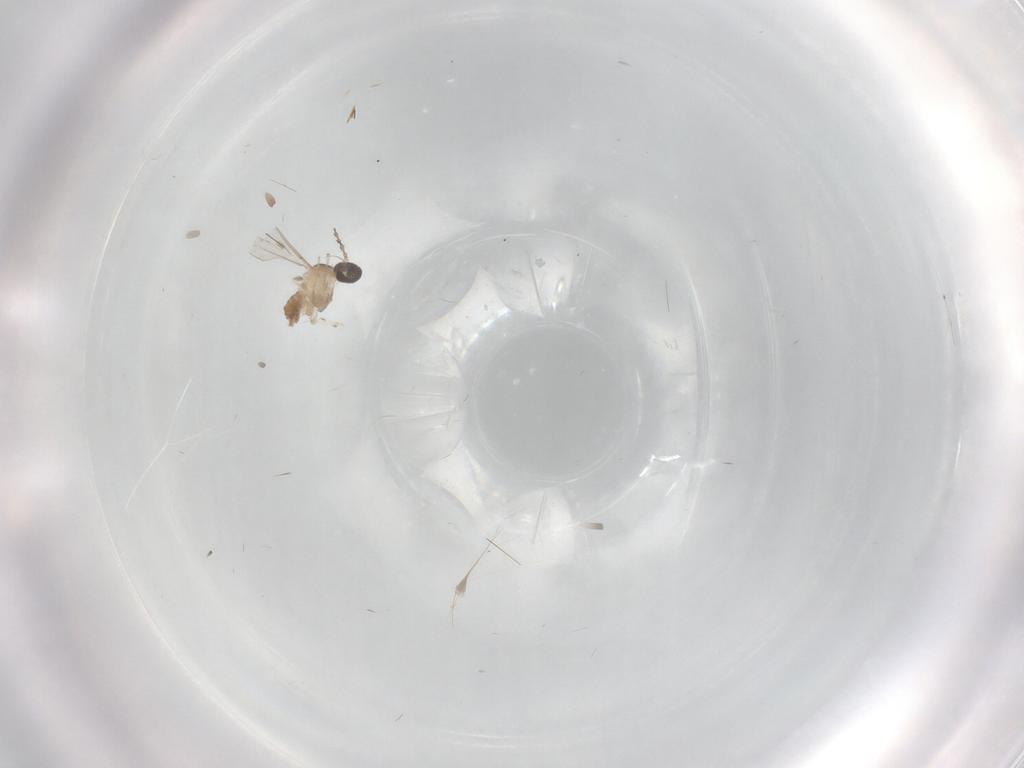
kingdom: Animalia
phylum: Arthropoda
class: Insecta
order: Diptera
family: Cecidomyiidae
